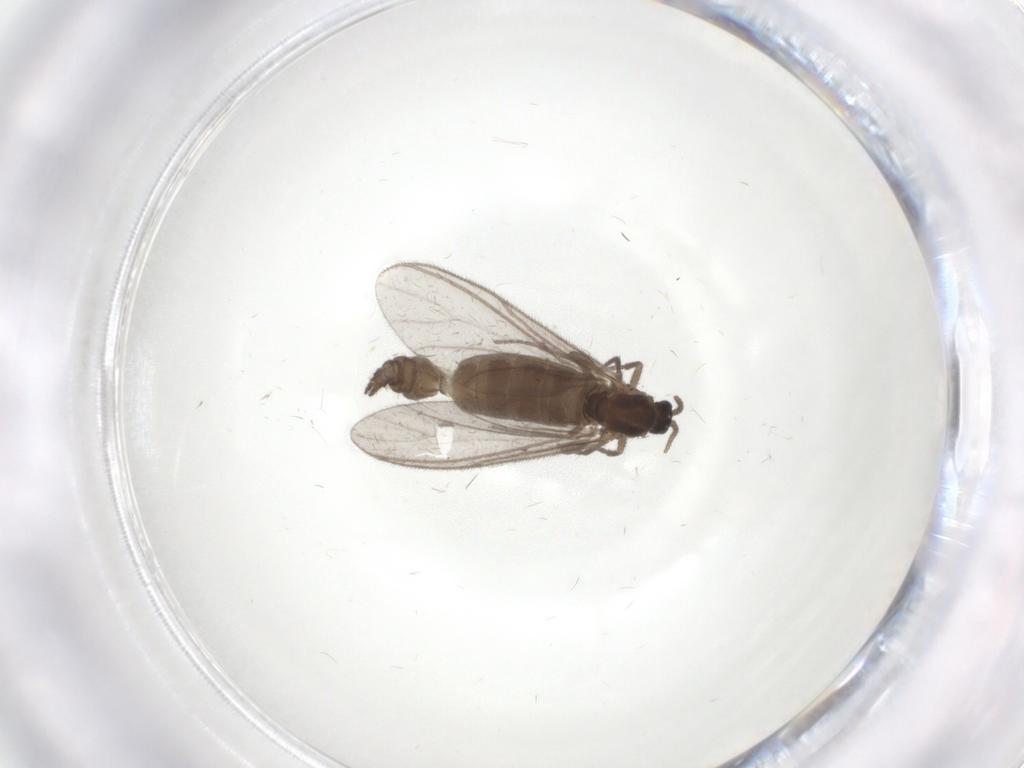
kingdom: Animalia
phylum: Arthropoda
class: Insecta
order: Diptera
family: Sciaridae
